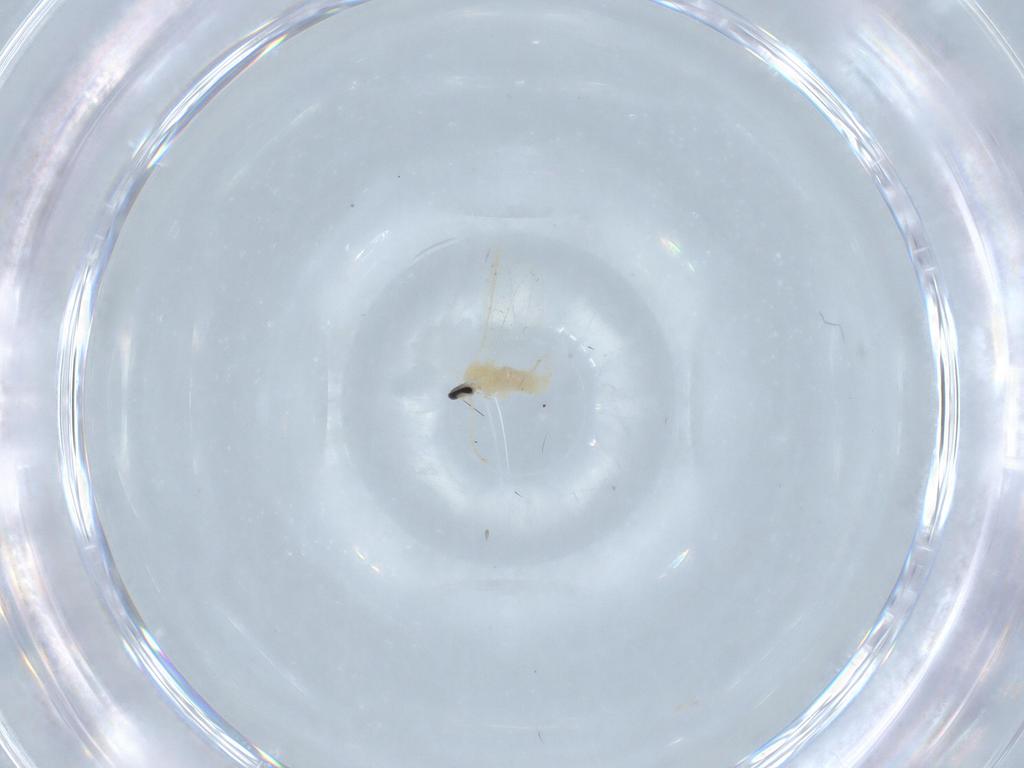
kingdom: Animalia
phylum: Arthropoda
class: Insecta
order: Diptera
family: Cecidomyiidae
